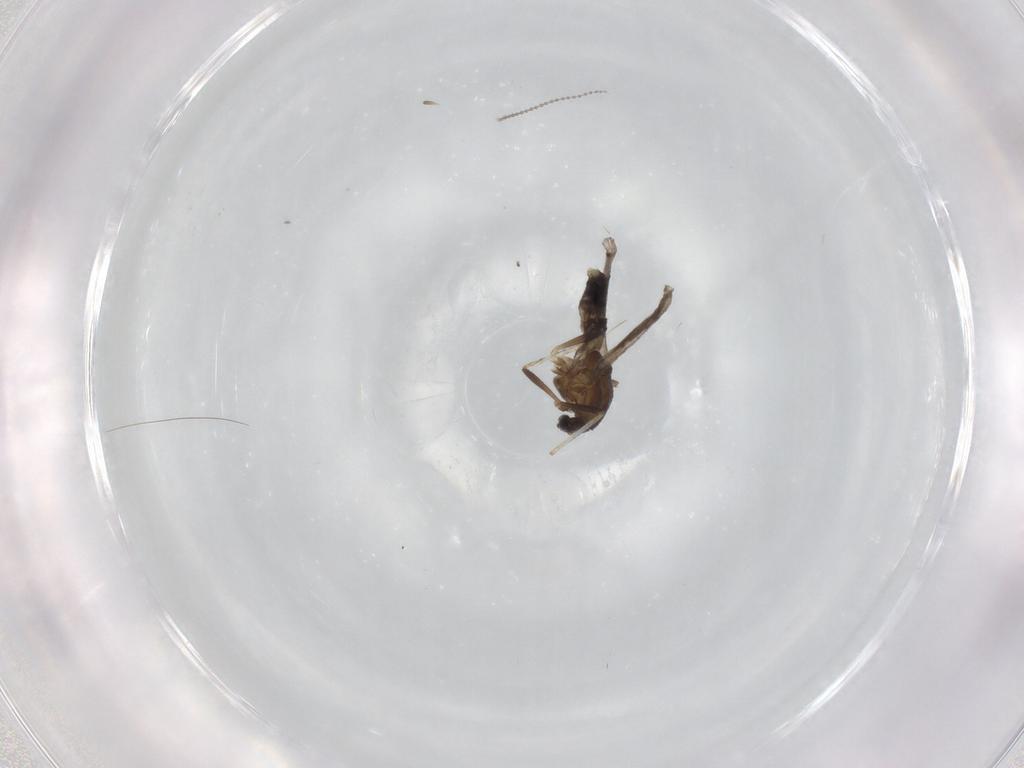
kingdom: Animalia
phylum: Arthropoda
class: Insecta
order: Diptera
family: Chironomidae
